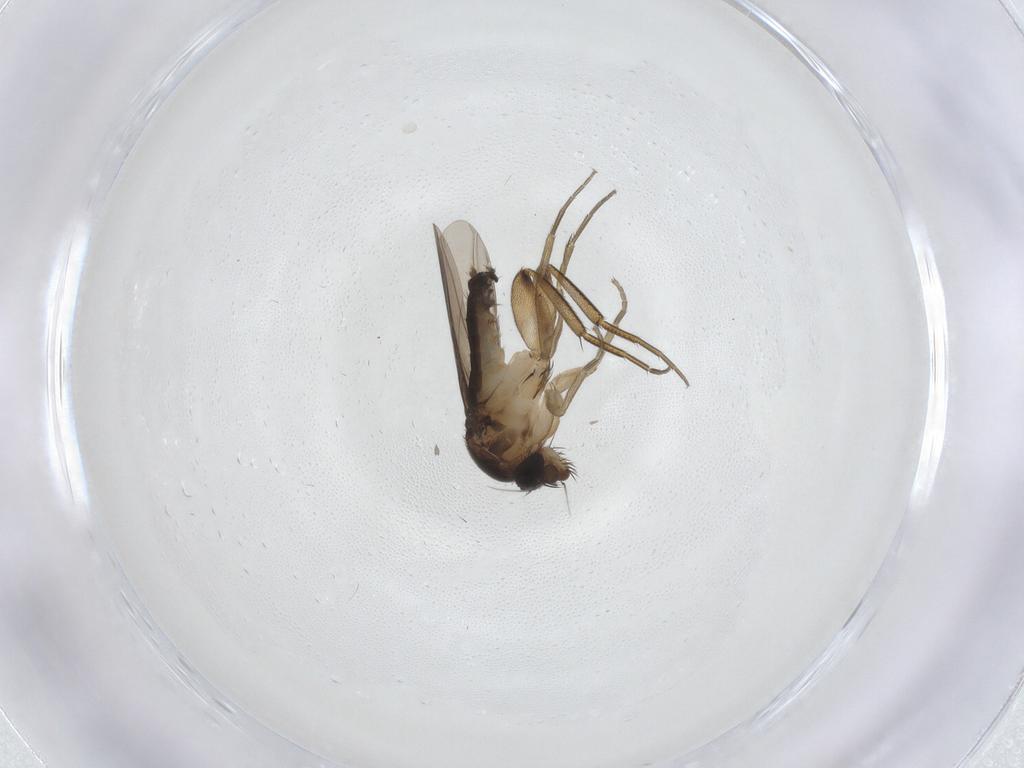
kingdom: Animalia
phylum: Arthropoda
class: Insecta
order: Diptera
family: Phoridae
